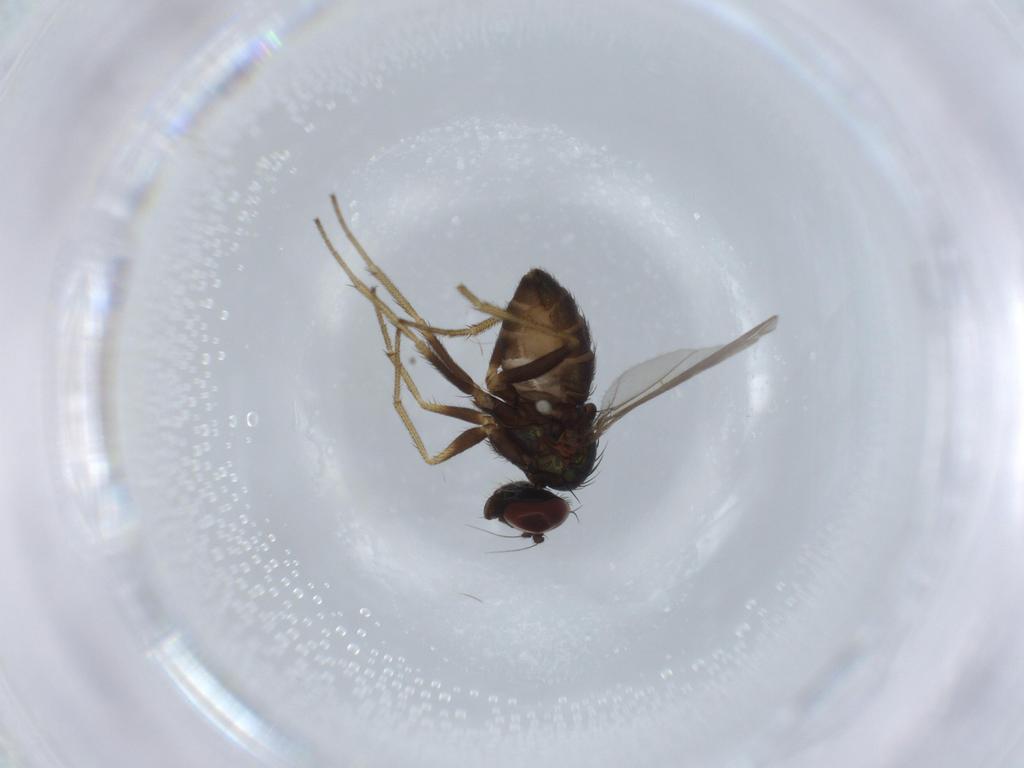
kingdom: Animalia
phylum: Arthropoda
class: Insecta
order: Diptera
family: Dolichopodidae
